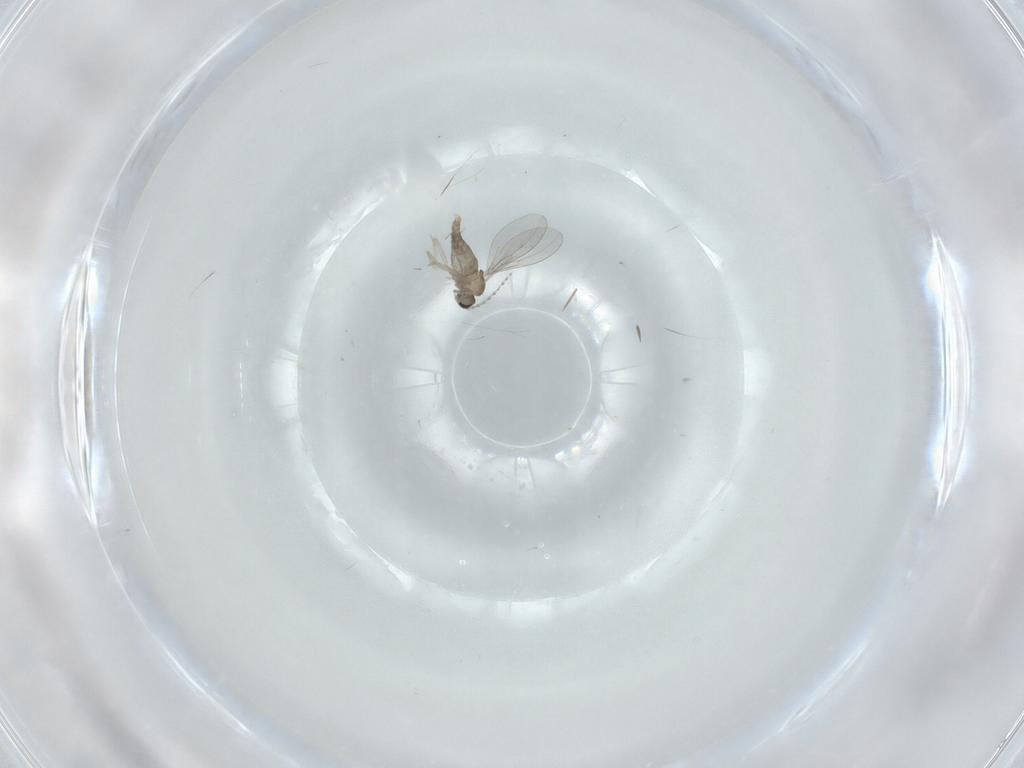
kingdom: Animalia
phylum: Arthropoda
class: Insecta
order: Diptera
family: Cecidomyiidae
